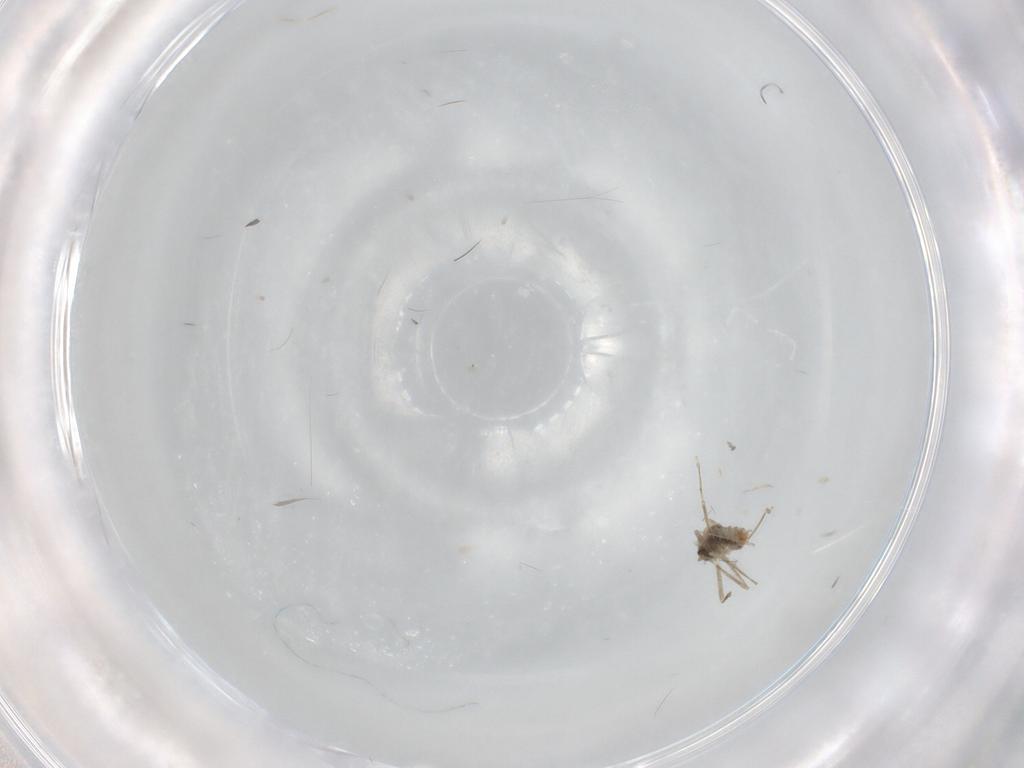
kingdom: Animalia
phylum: Arthropoda
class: Insecta
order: Diptera
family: Cecidomyiidae
